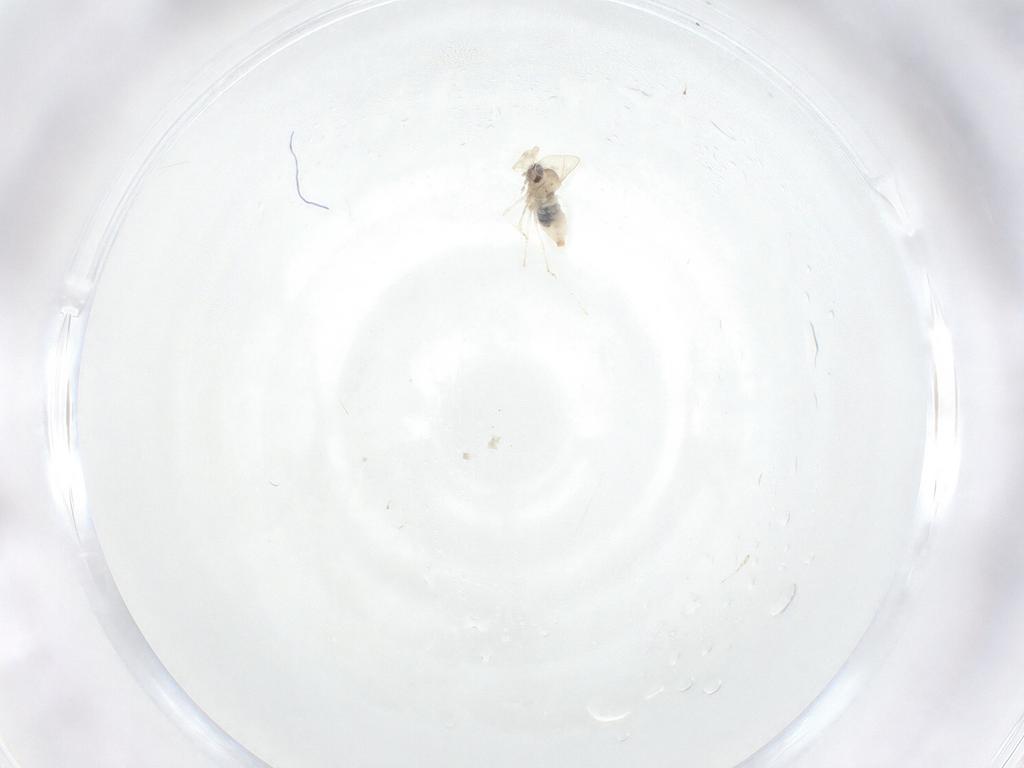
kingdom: Animalia
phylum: Arthropoda
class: Insecta
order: Diptera
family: Cecidomyiidae
